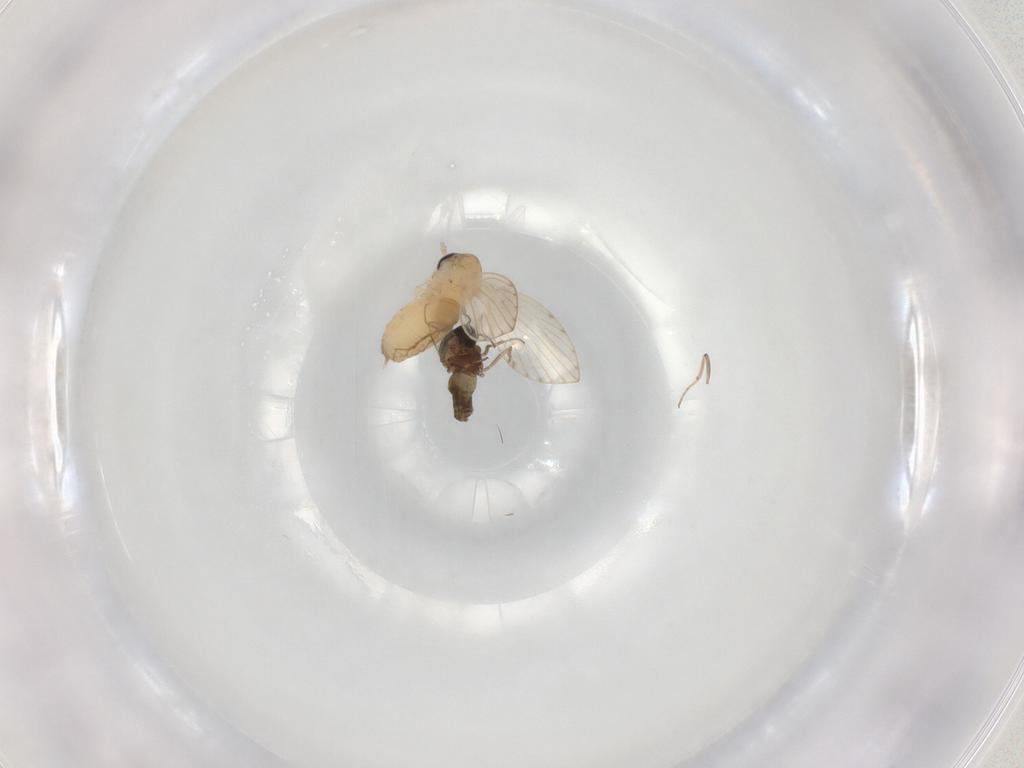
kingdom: Animalia
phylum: Arthropoda
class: Insecta
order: Diptera
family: Psychodidae
